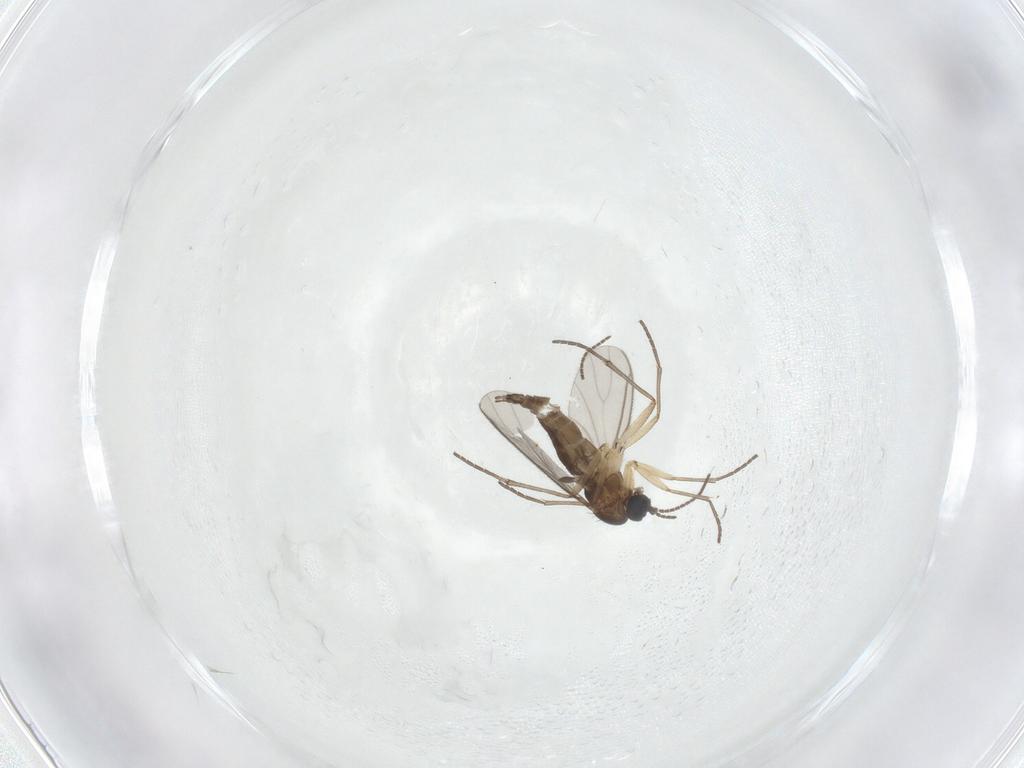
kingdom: Animalia
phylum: Arthropoda
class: Insecta
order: Diptera
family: Sciaridae
